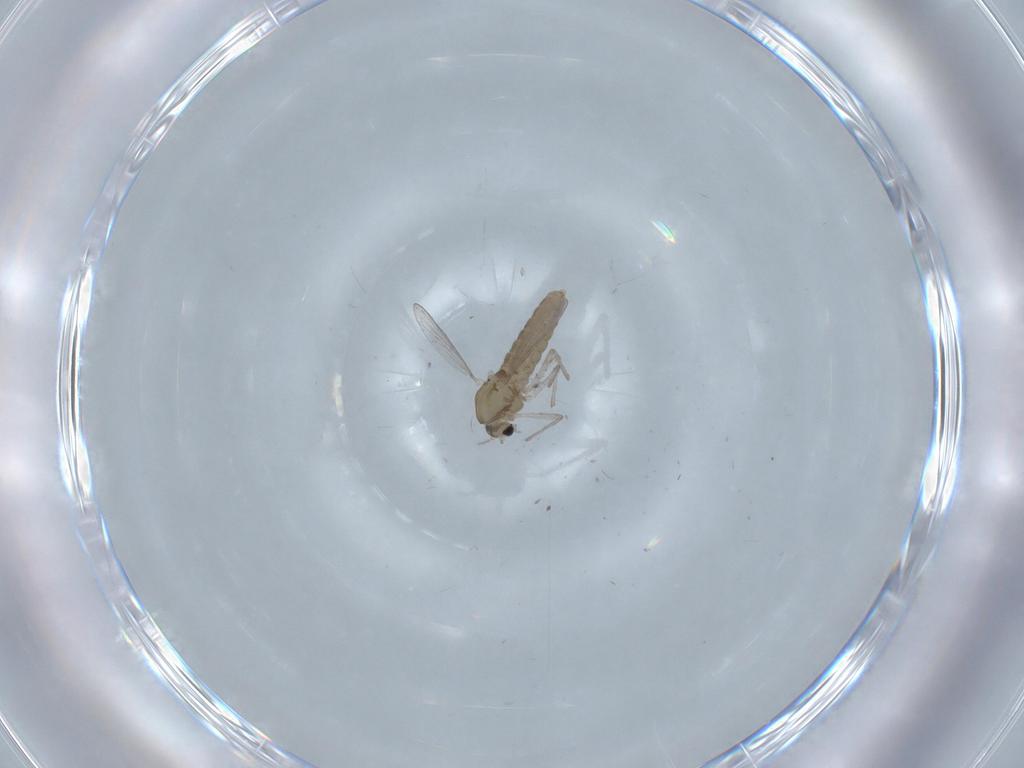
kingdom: Animalia
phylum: Arthropoda
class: Insecta
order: Diptera
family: Chironomidae
